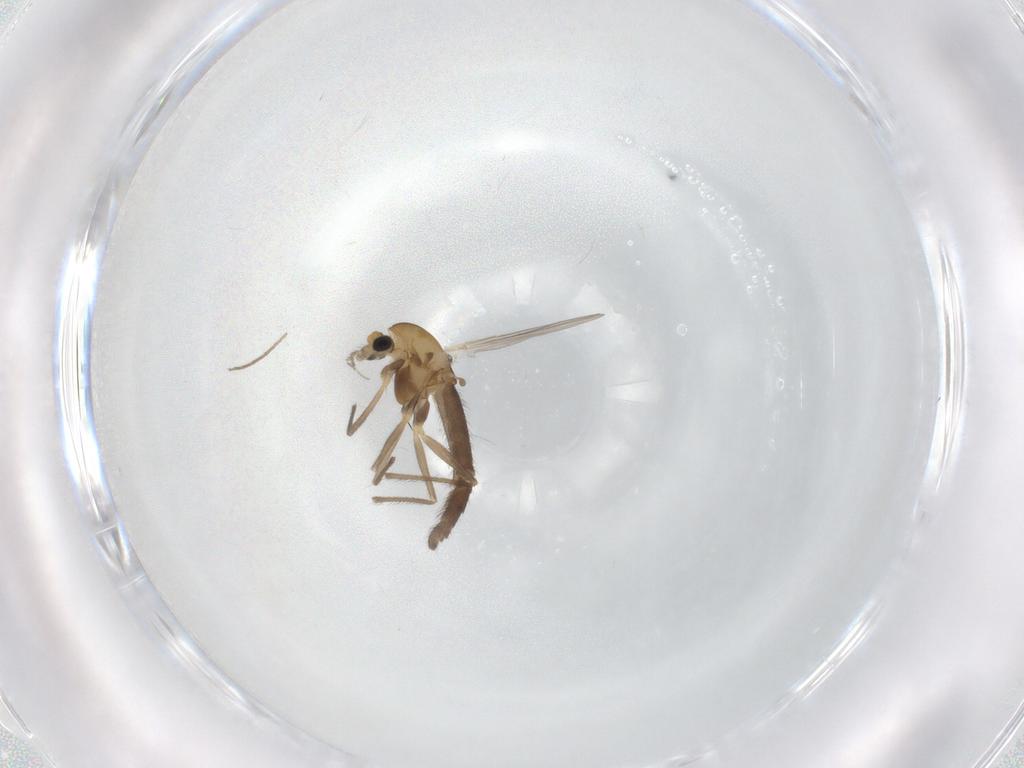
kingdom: Animalia
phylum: Arthropoda
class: Insecta
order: Diptera
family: Chironomidae
